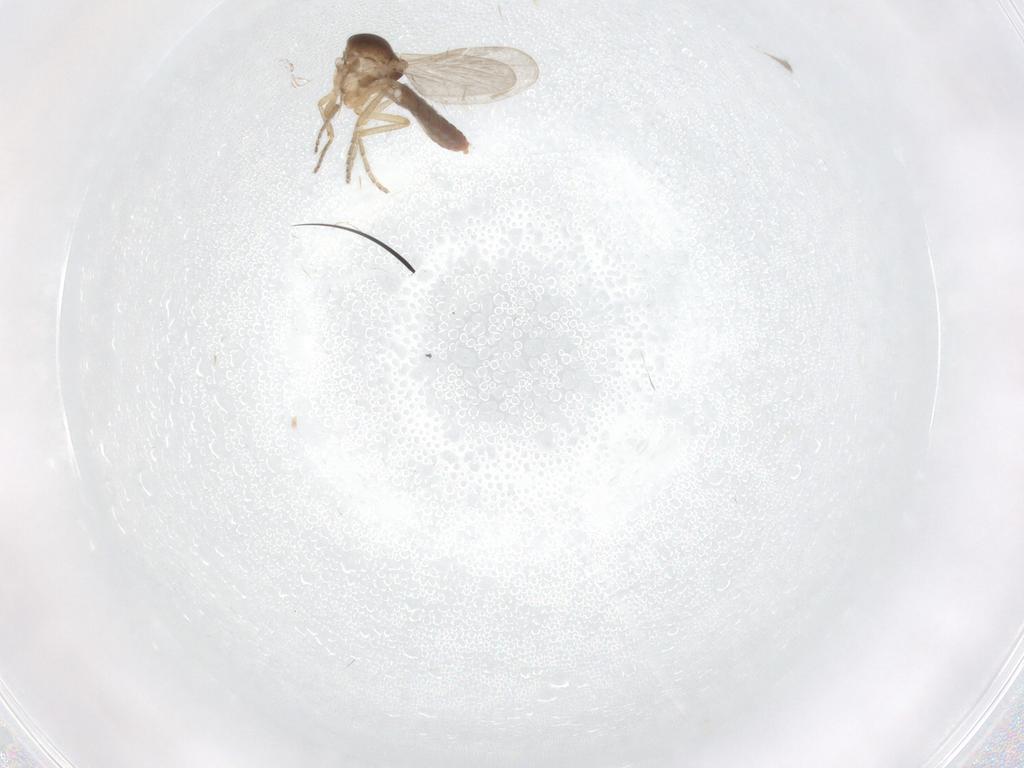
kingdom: Animalia
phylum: Arthropoda
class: Insecta
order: Diptera
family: Ceratopogonidae
